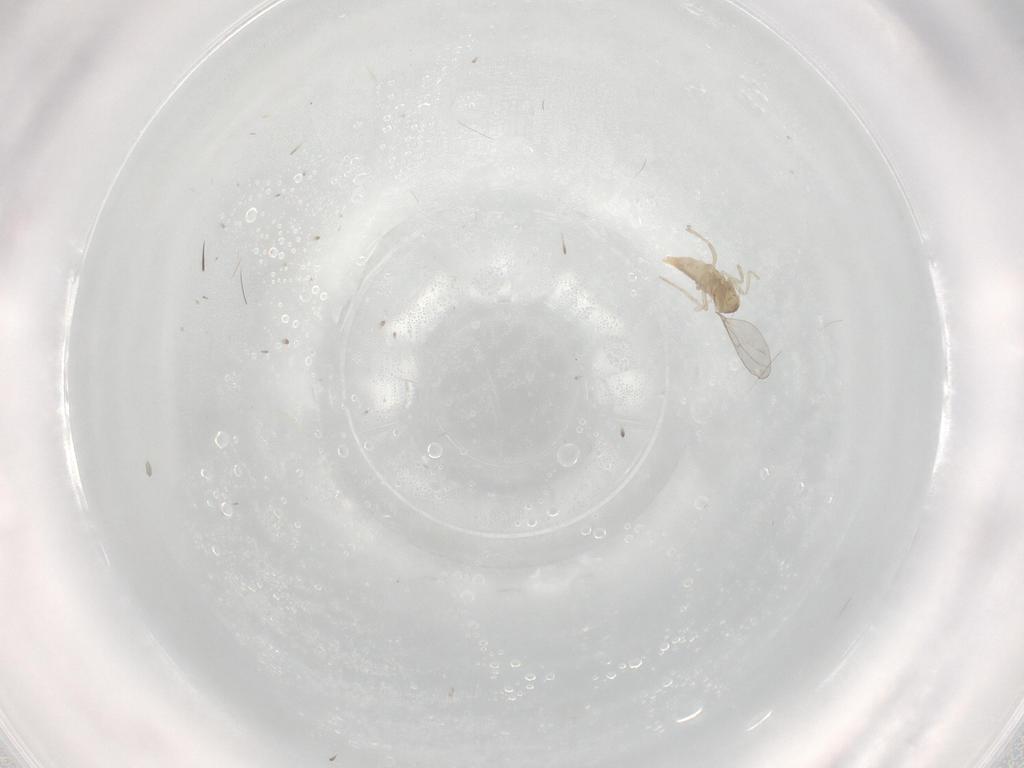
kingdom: Animalia
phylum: Arthropoda
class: Insecta
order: Diptera
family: Cecidomyiidae
